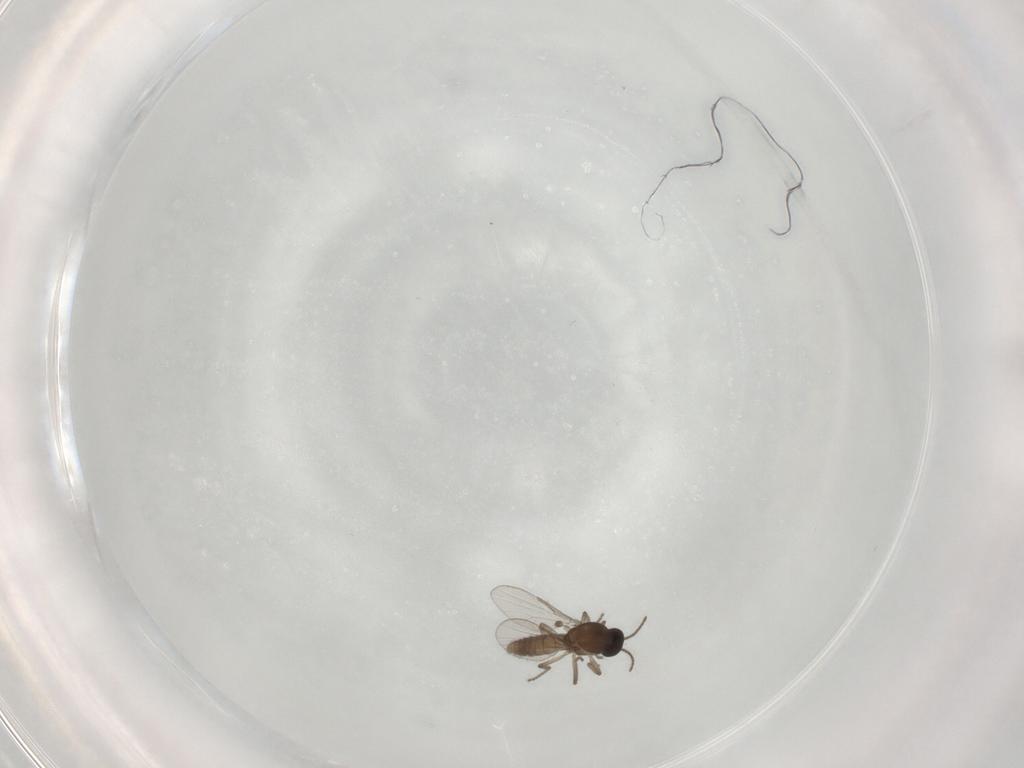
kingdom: Animalia
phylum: Arthropoda
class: Insecta
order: Diptera
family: Ceratopogonidae
